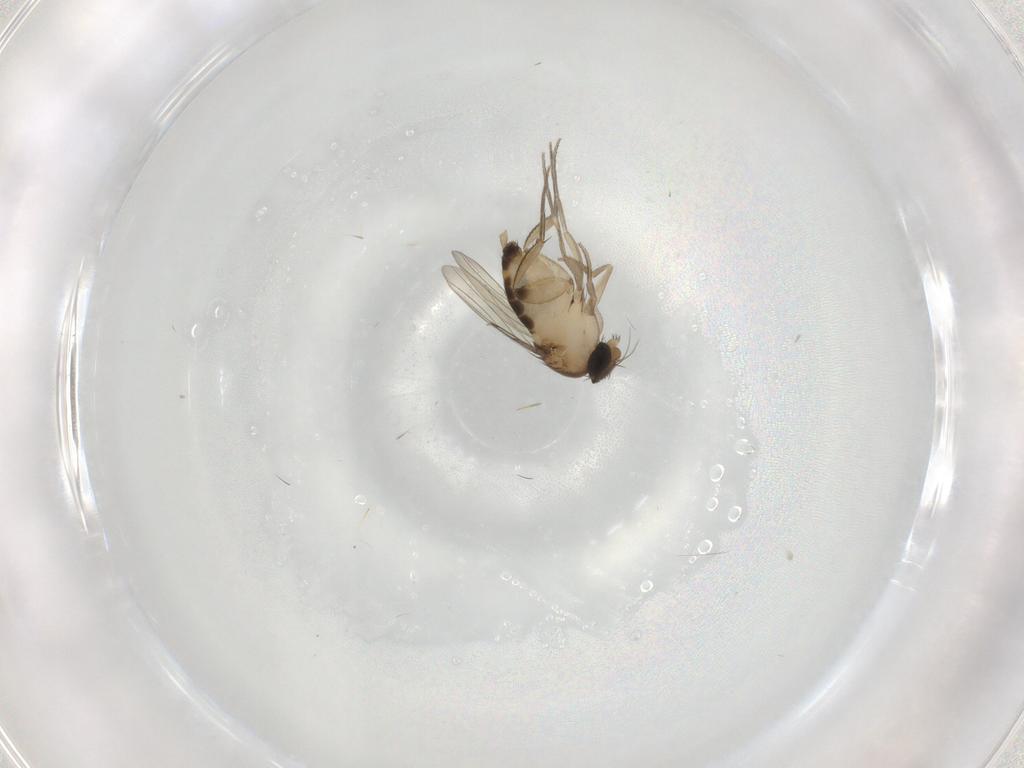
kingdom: Animalia
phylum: Arthropoda
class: Insecta
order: Diptera
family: Phoridae
